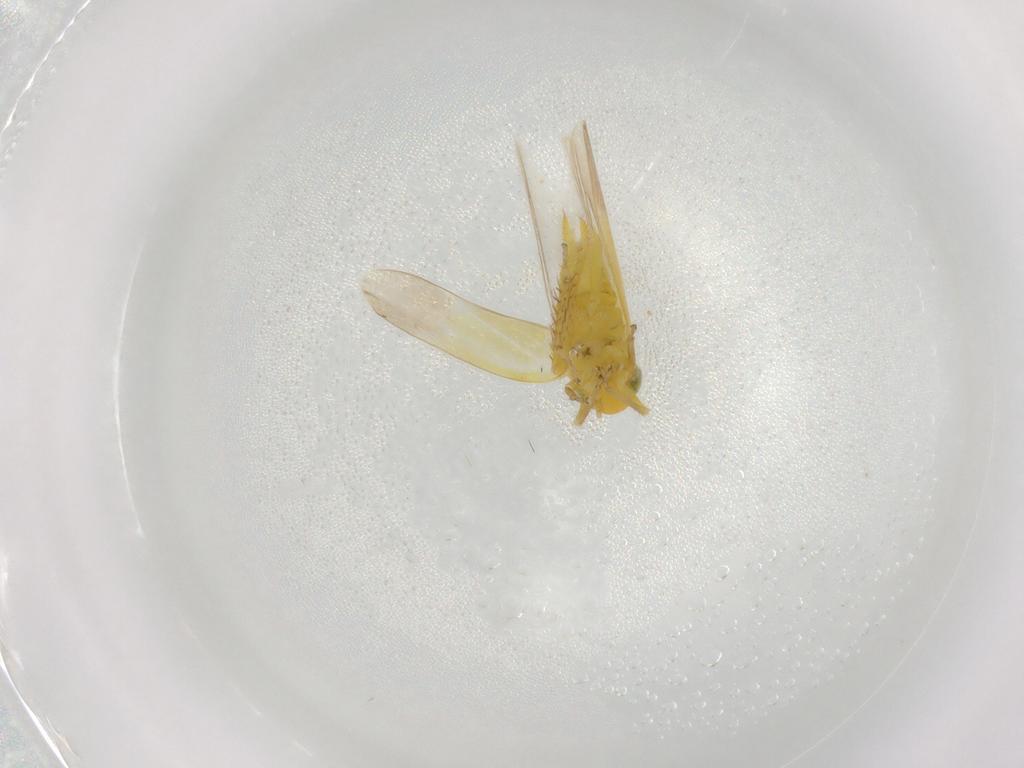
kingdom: Animalia
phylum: Arthropoda
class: Insecta
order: Hemiptera
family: Cicadellidae
